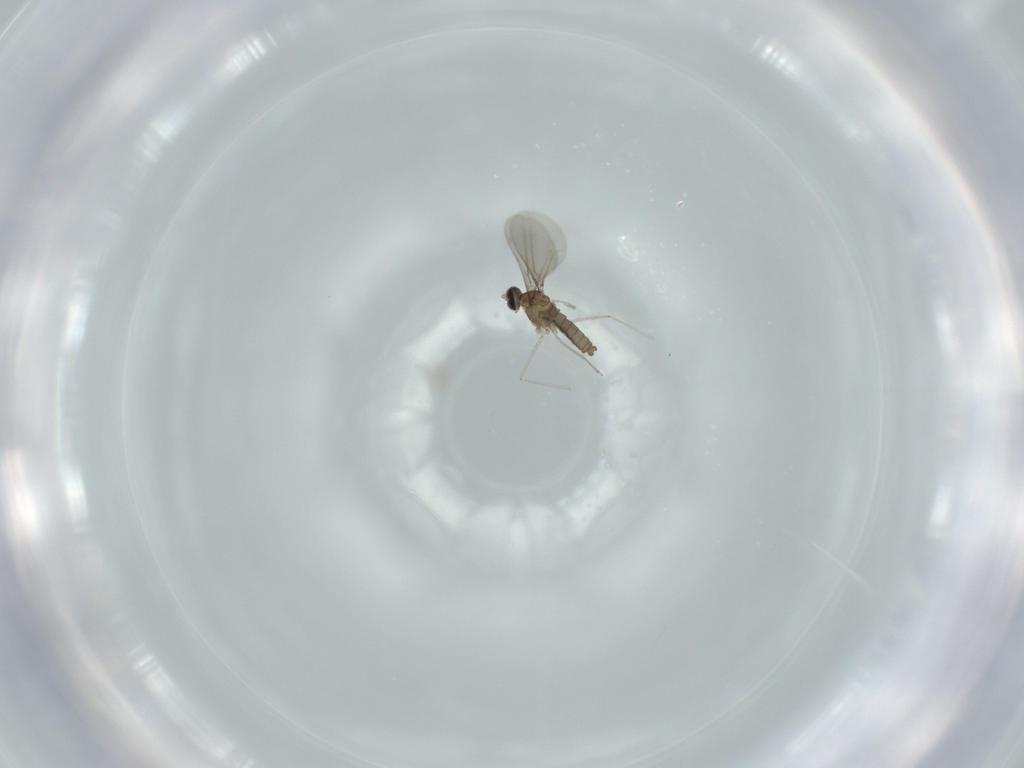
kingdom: Animalia
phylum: Arthropoda
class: Insecta
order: Diptera
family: Cecidomyiidae
